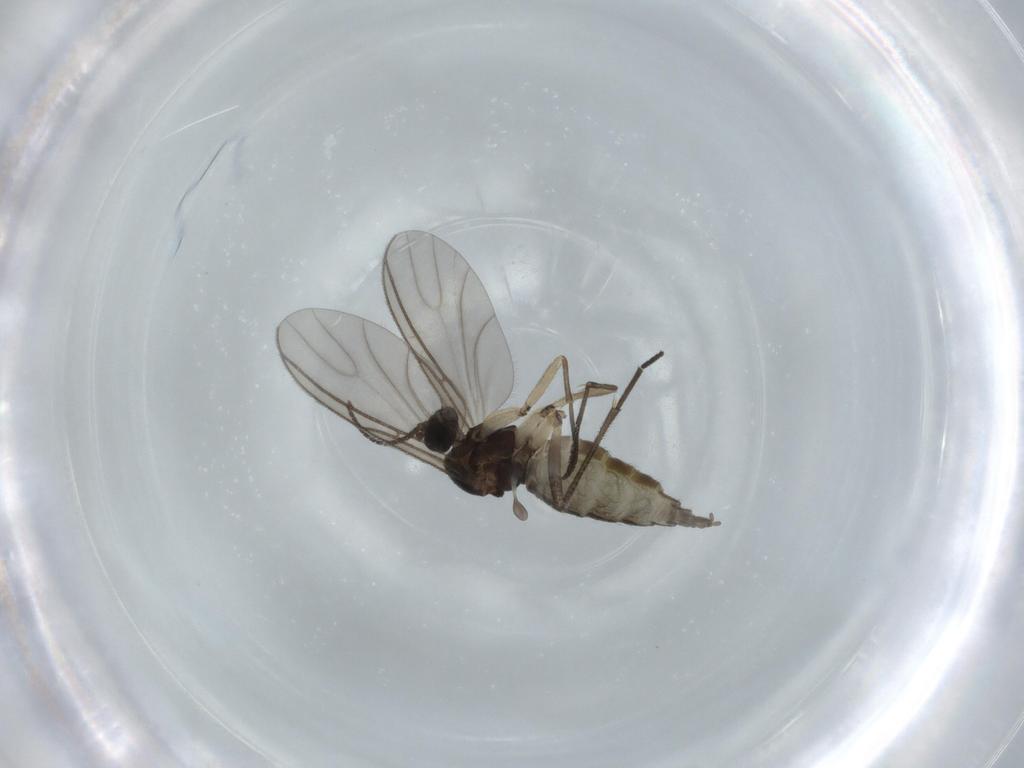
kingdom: Animalia
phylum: Arthropoda
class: Insecta
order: Diptera
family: Sciaridae
